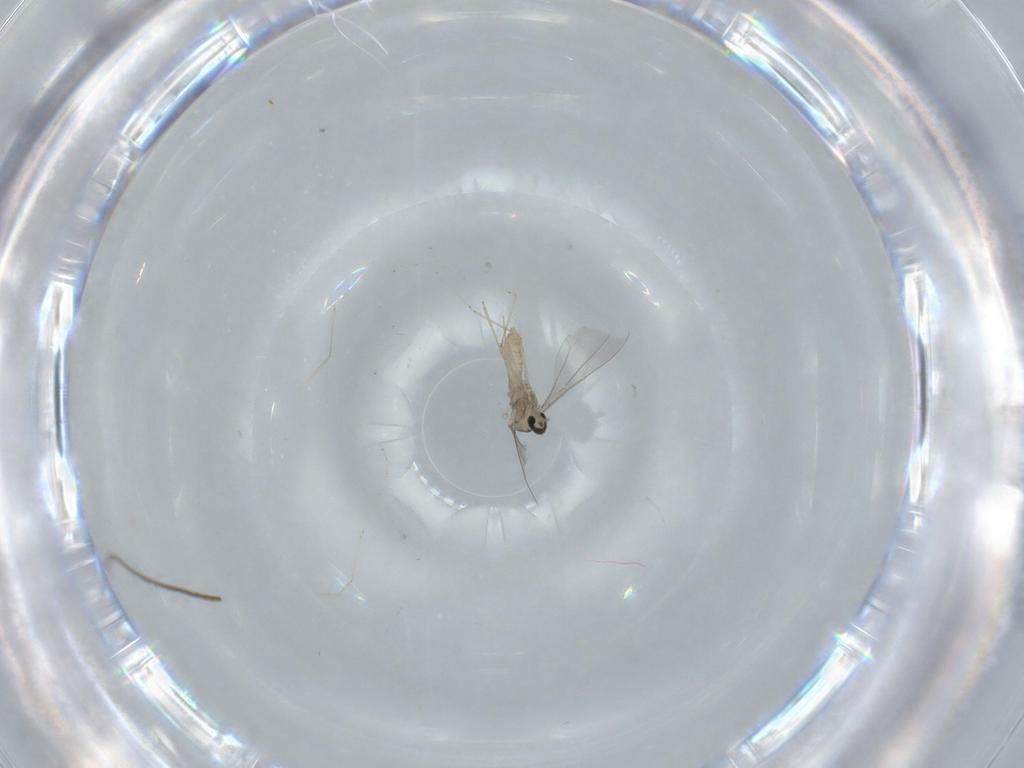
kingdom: Animalia
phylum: Arthropoda
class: Insecta
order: Diptera
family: Cecidomyiidae
